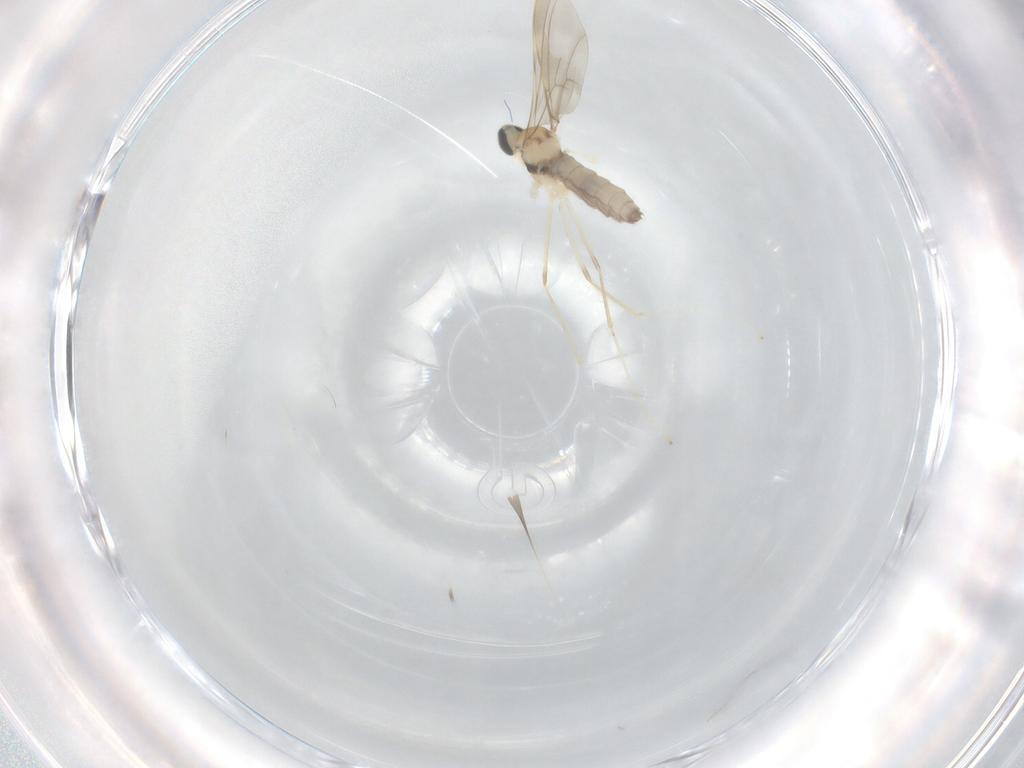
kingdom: Animalia
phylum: Arthropoda
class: Insecta
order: Diptera
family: Cecidomyiidae
